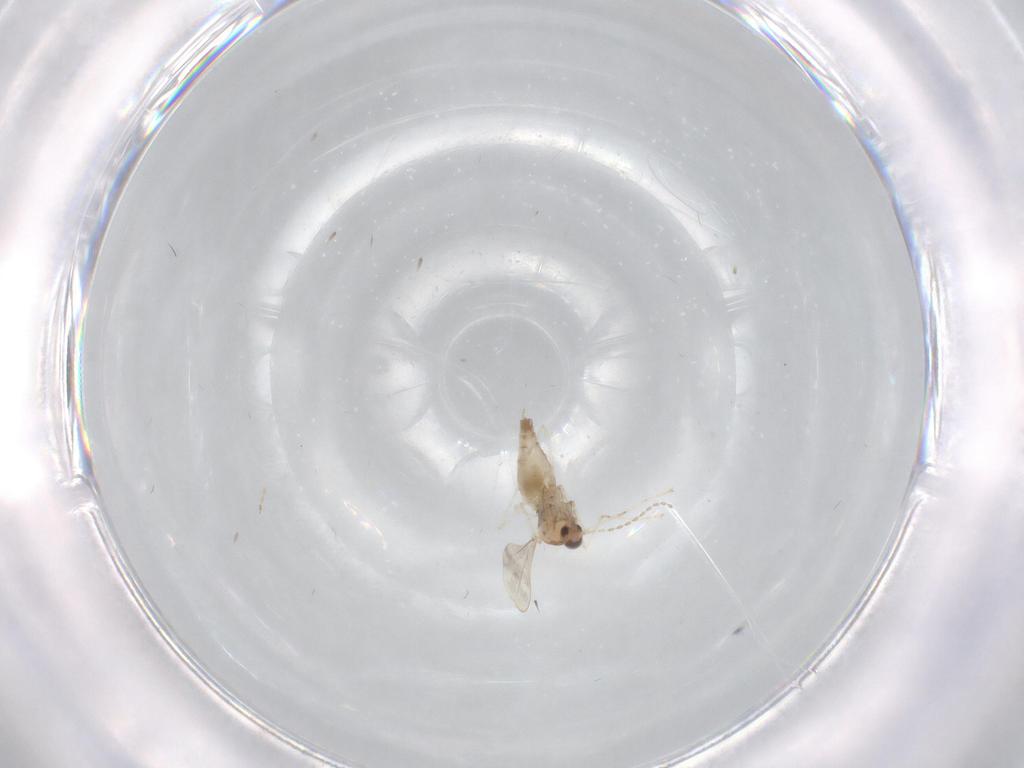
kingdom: Animalia
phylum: Arthropoda
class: Insecta
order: Diptera
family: Cecidomyiidae
